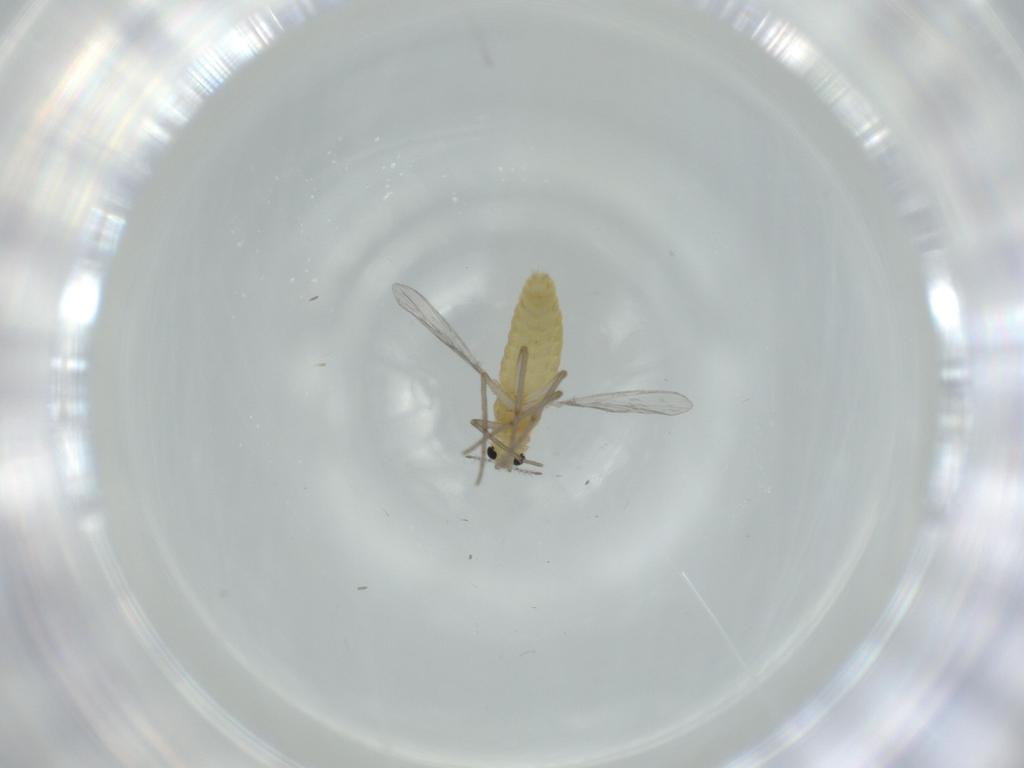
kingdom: Animalia
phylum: Arthropoda
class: Insecta
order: Diptera
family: Chironomidae
